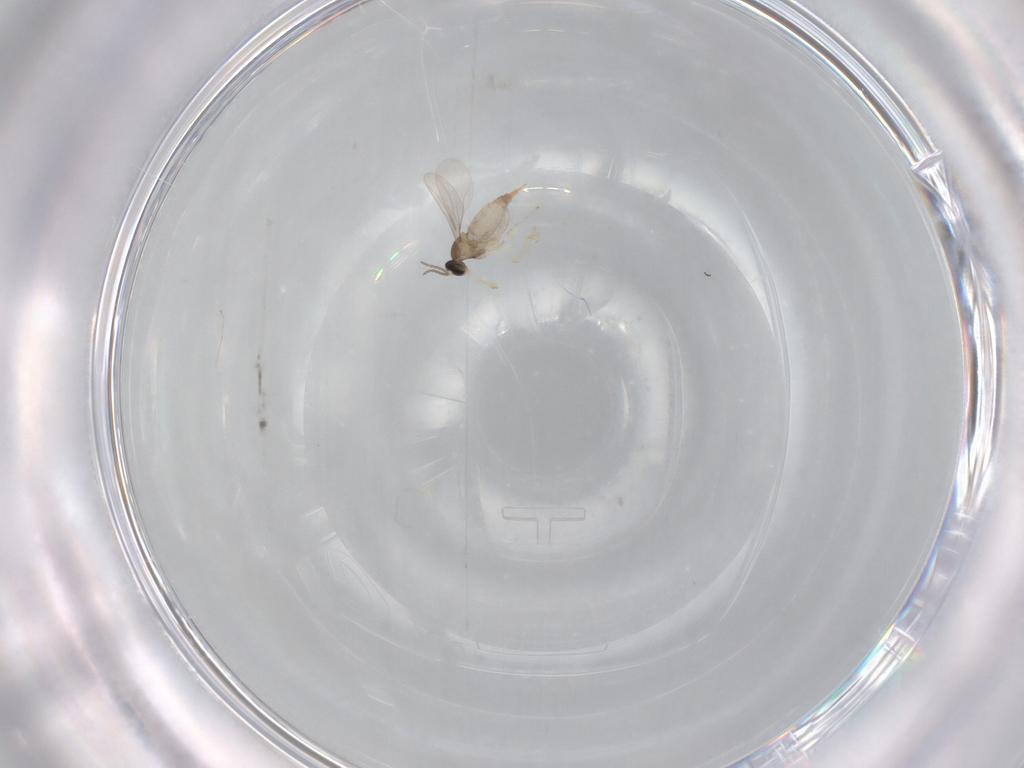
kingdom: Animalia
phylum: Arthropoda
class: Insecta
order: Diptera
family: Cecidomyiidae
